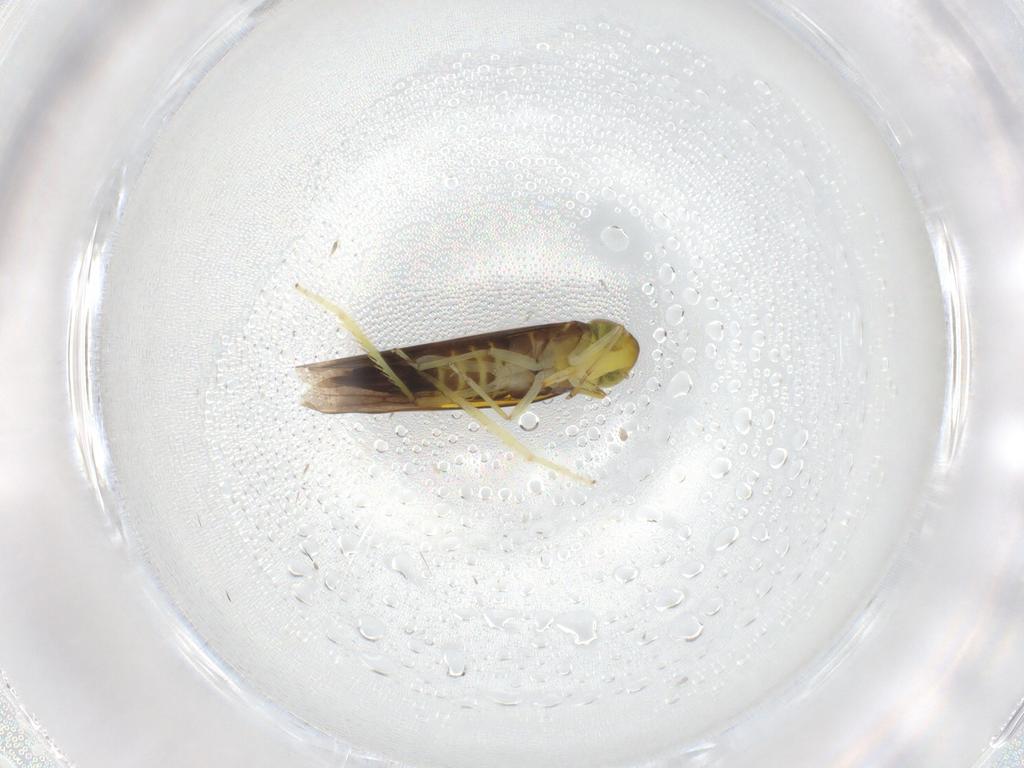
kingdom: Animalia
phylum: Arthropoda
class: Insecta
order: Hemiptera
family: Cicadellidae
